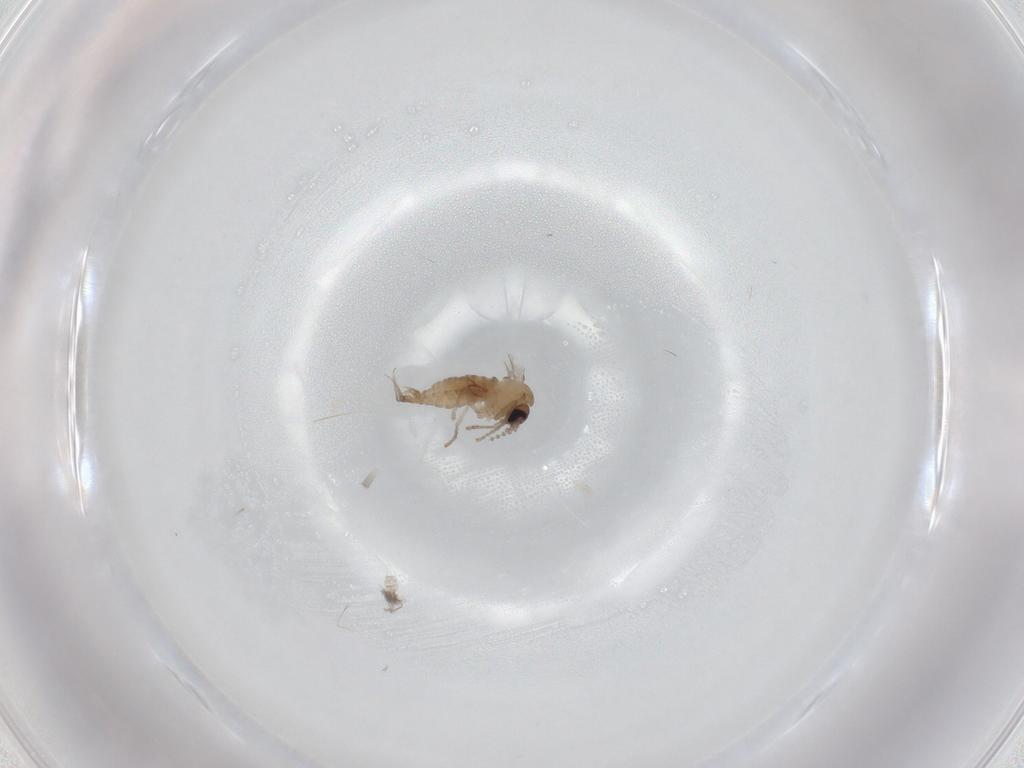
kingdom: Animalia
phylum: Arthropoda
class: Insecta
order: Diptera
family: Psychodidae
